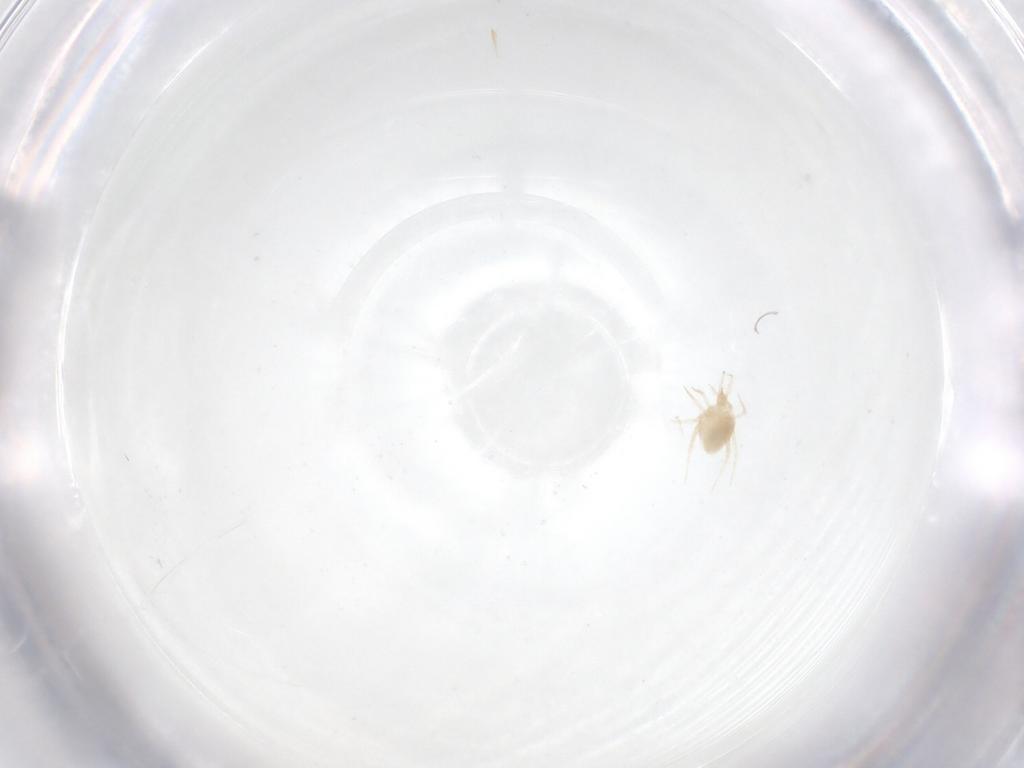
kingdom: Animalia
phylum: Arthropoda
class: Arachnida
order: Trombidiformes
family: Cunaxidae
